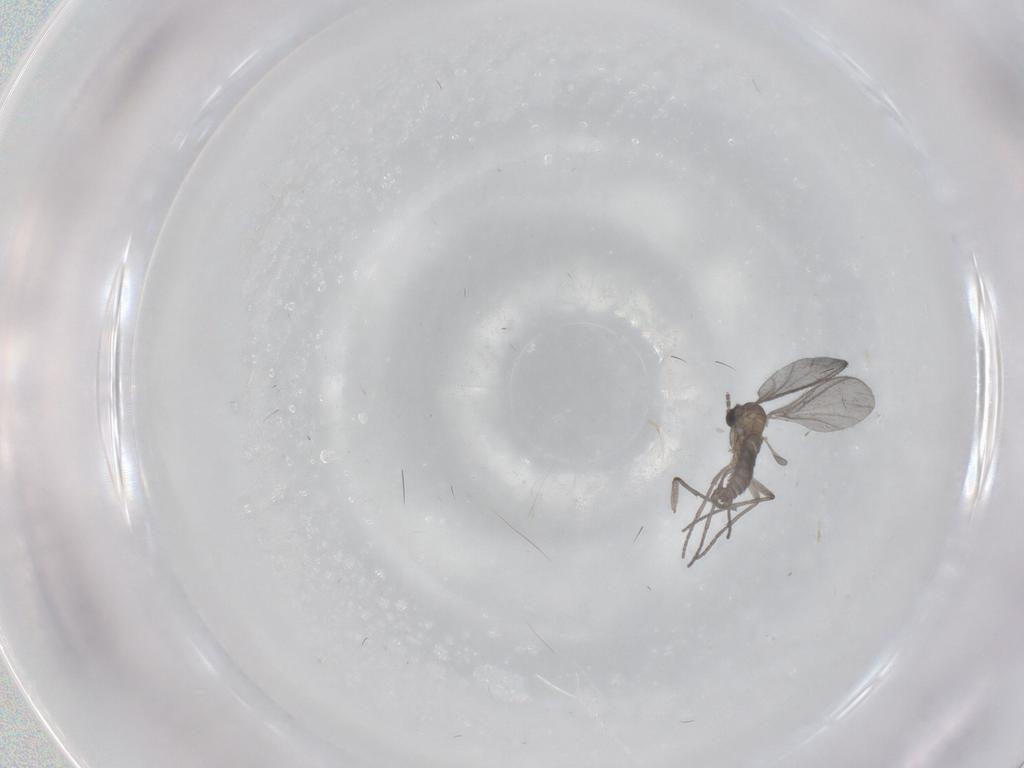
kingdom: Animalia
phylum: Arthropoda
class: Insecta
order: Diptera
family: Sciaridae
